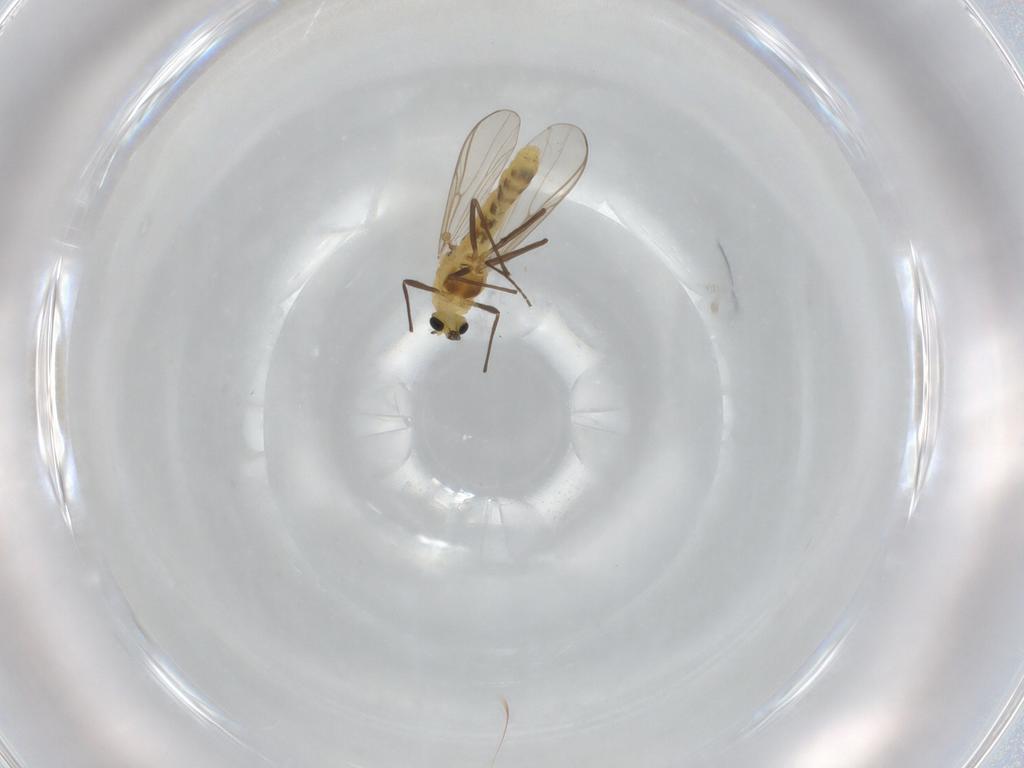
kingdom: Animalia
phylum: Arthropoda
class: Insecta
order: Diptera
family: Chironomidae
